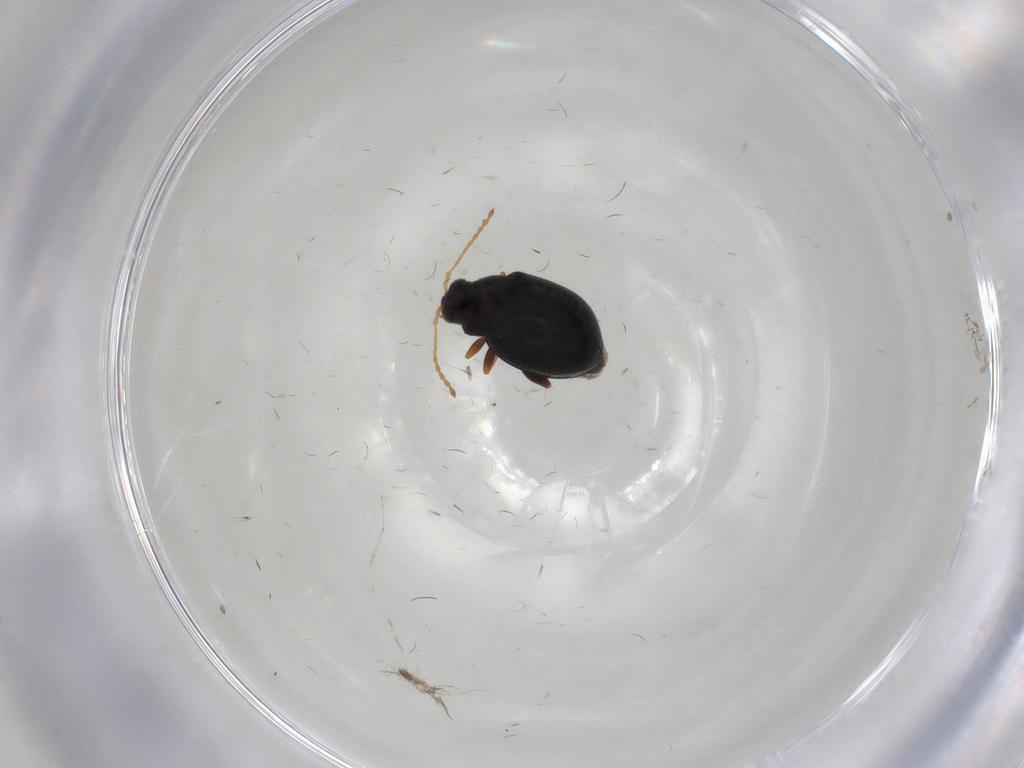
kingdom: Animalia
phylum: Arthropoda
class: Insecta
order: Coleoptera
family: Chrysomelidae
